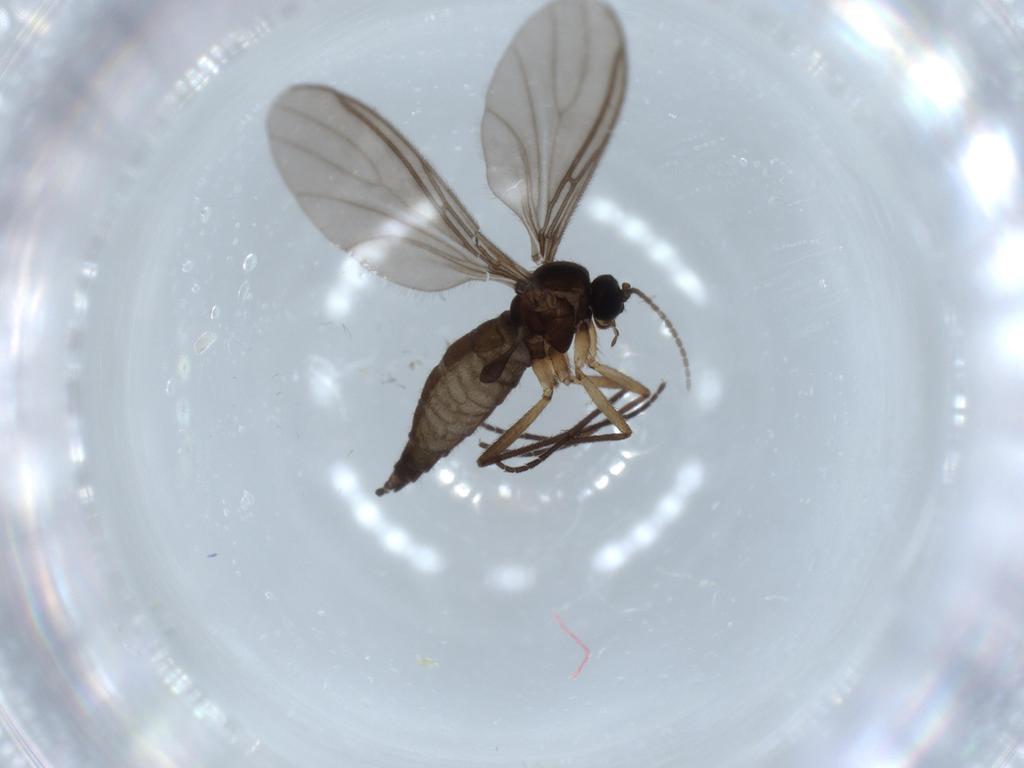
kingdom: Animalia
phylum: Arthropoda
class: Insecta
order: Diptera
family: Sciaridae
